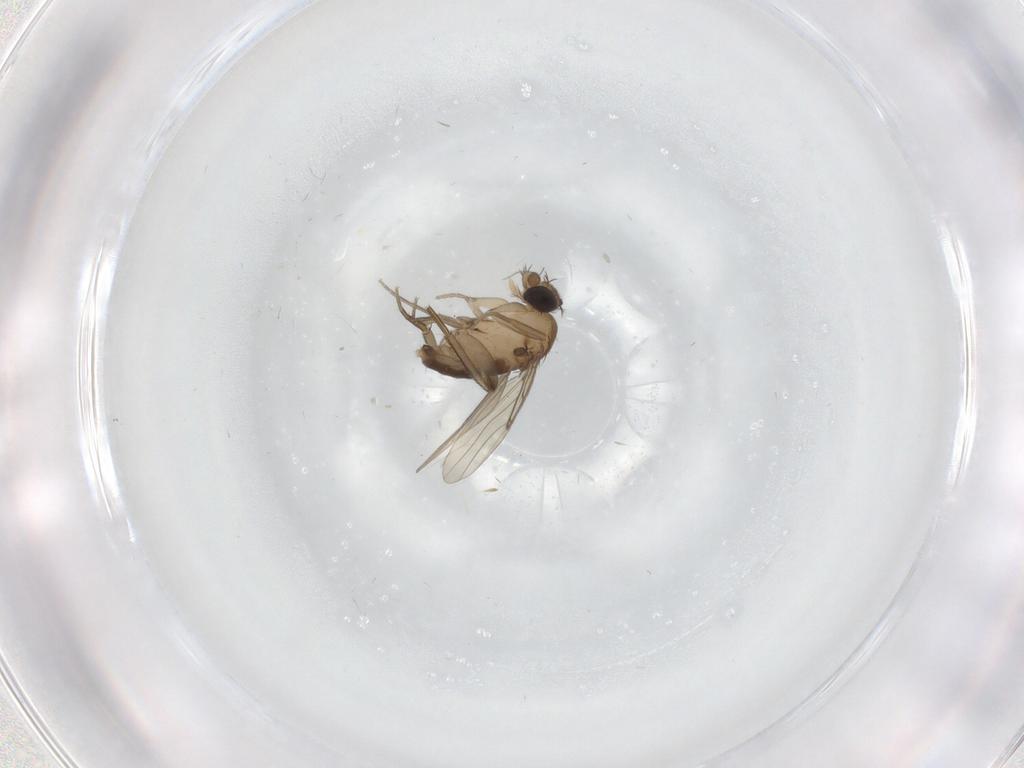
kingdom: Animalia
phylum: Arthropoda
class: Insecta
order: Diptera
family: Phoridae
